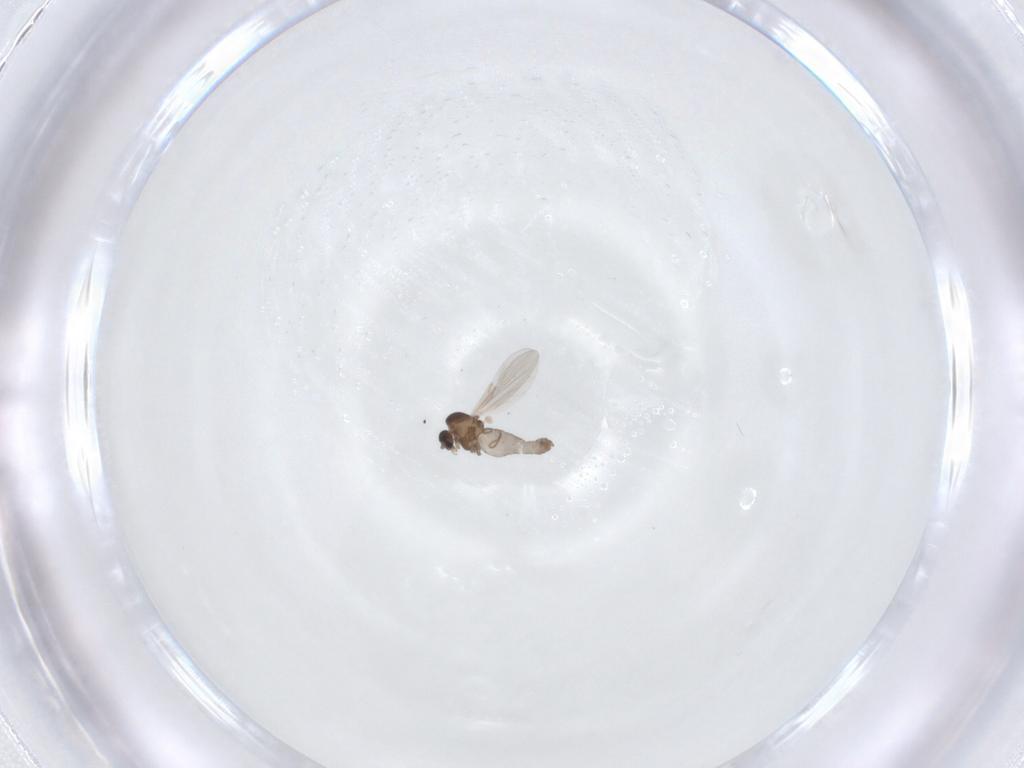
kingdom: Animalia
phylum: Arthropoda
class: Insecta
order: Diptera
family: Ceratopogonidae
